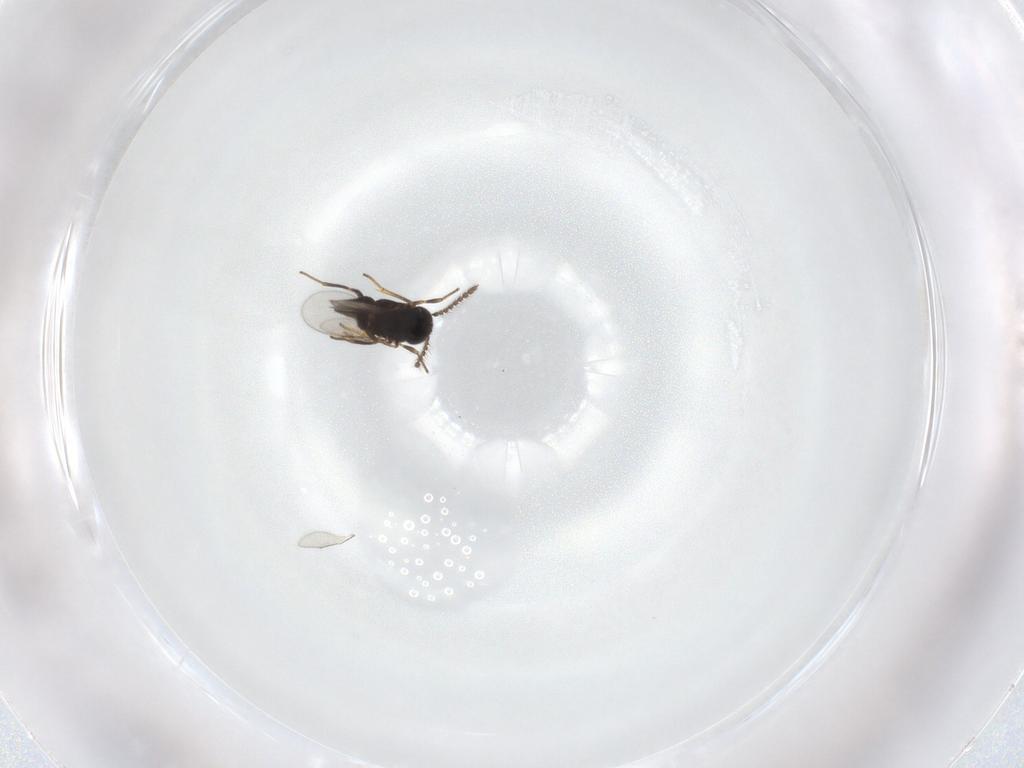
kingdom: Animalia
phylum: Arthropoda
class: Insecta
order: Hymenoptera
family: Encyrtidae
